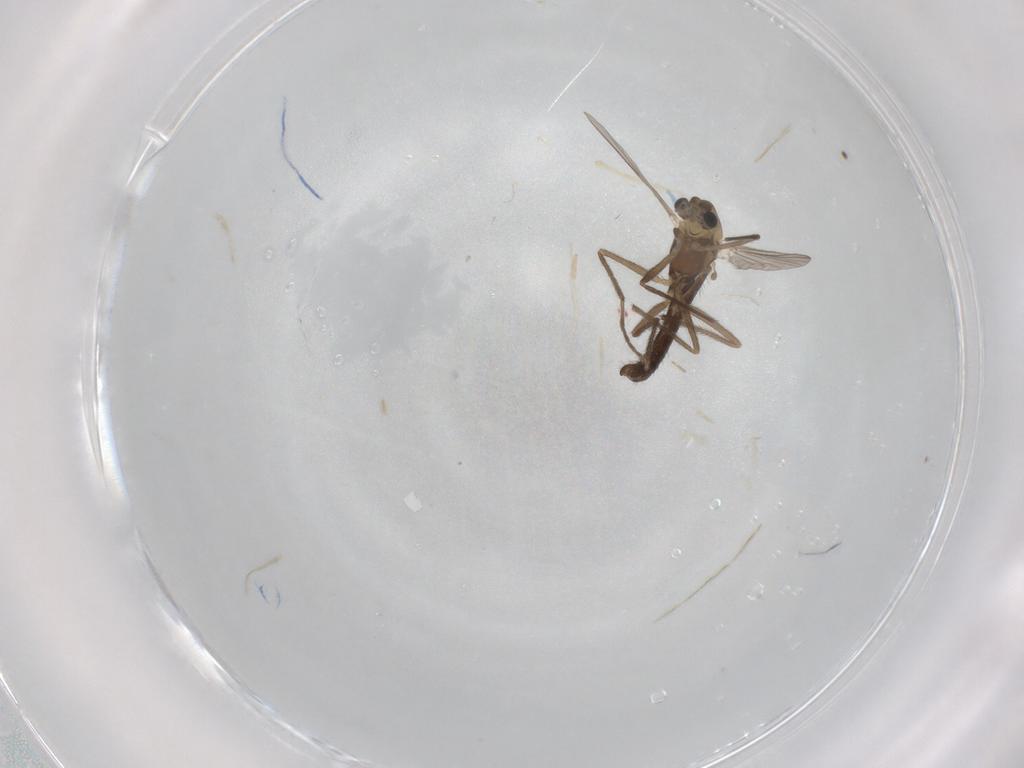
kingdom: Animalia
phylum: Arthropoda
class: Insecta
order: Diptera
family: Chironomidae
